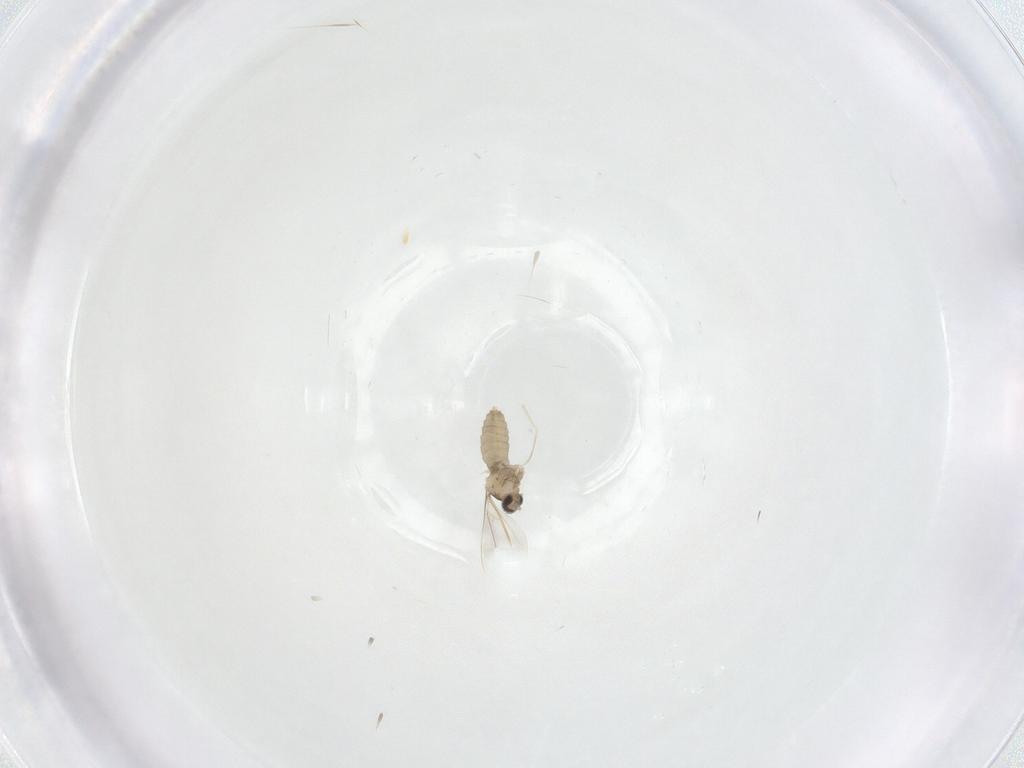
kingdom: Animalia
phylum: Arthropoda
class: Insecta
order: Diptera
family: Cecidomyiidae
